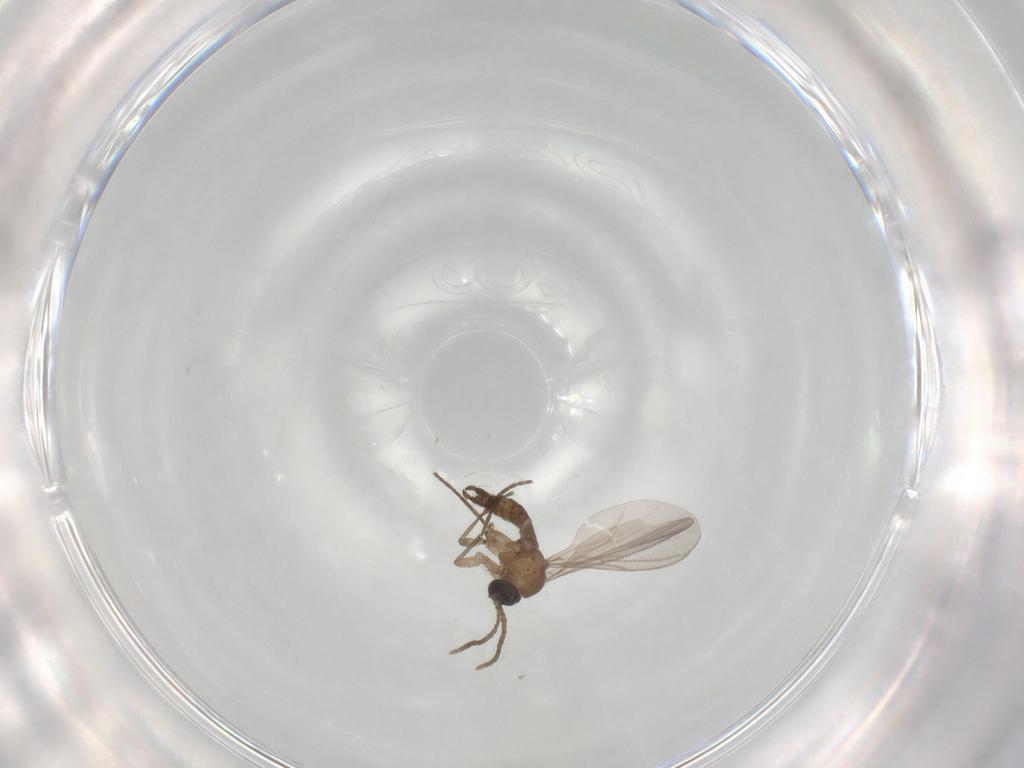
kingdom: Animalia
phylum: Arthropoda
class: Insecta
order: Diptera
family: Sciaridae
